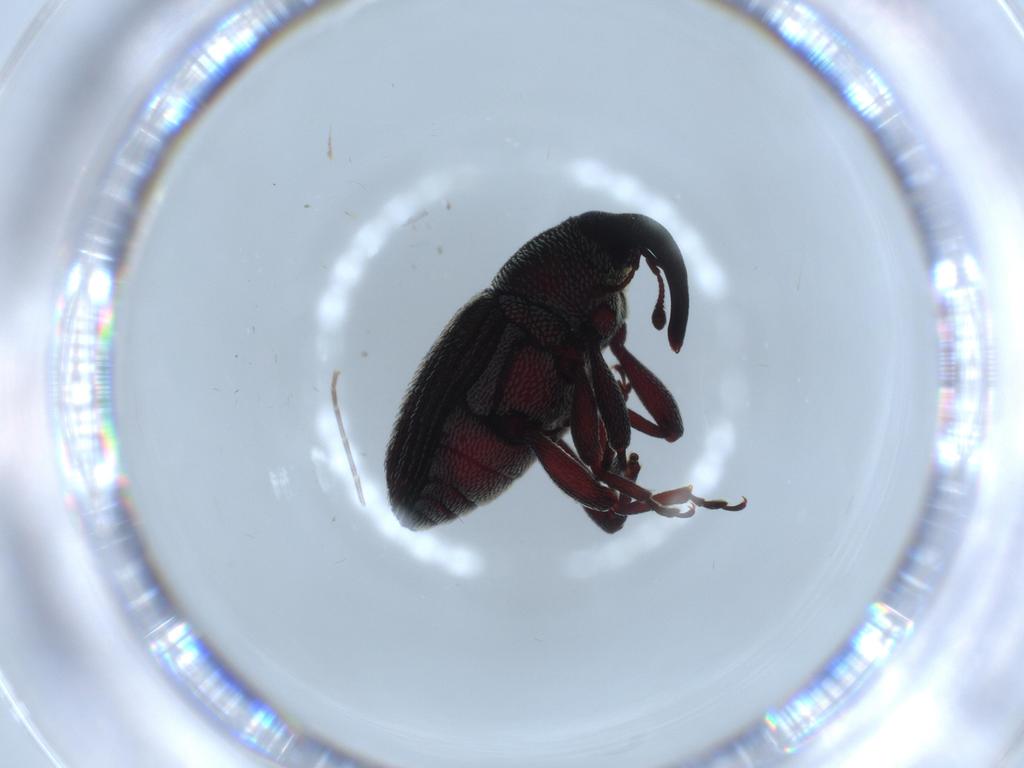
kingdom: Animalia
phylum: Arthropoda
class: Insecta
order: Coleoptera
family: Curculionidae
